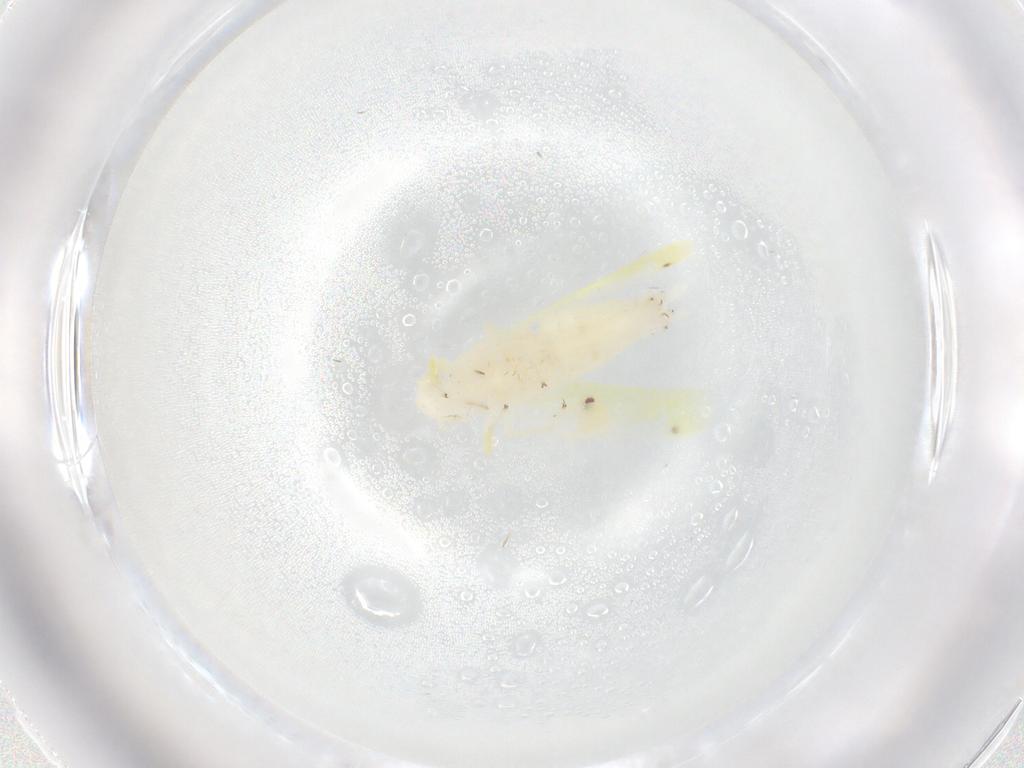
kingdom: Animalia
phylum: Arthropoda
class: Insecta
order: Hemiptera
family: Cicadellidae
